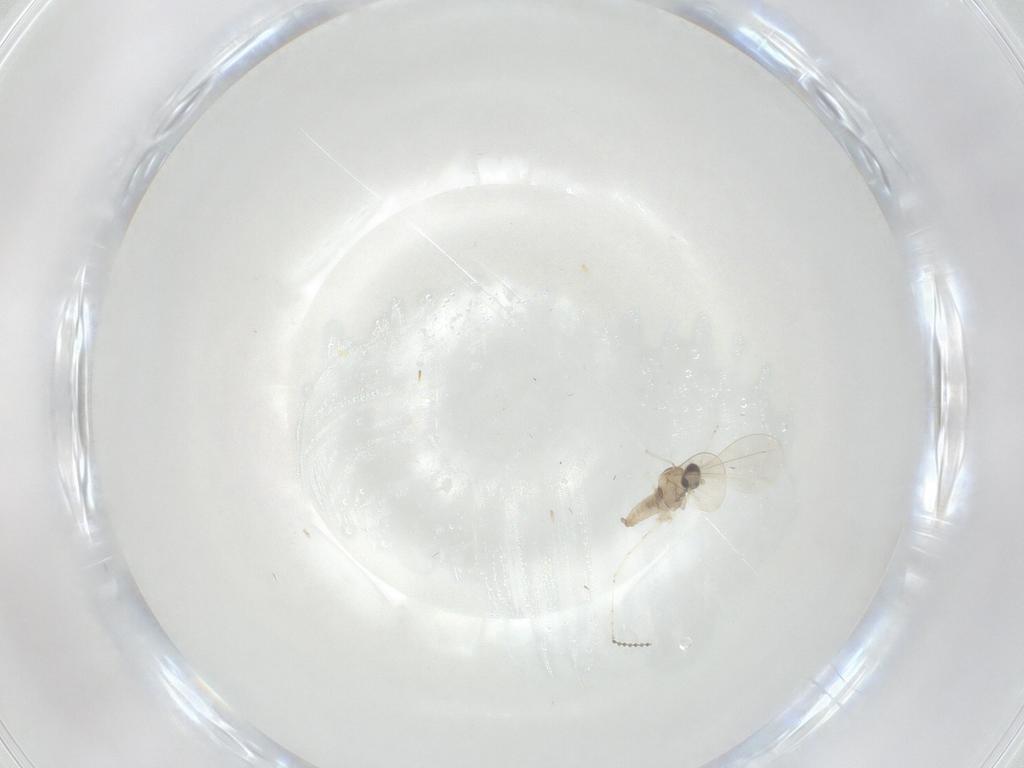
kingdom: Animalia
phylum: Arthropoda
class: Insecta
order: Diptera
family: Cecidomyiidae
